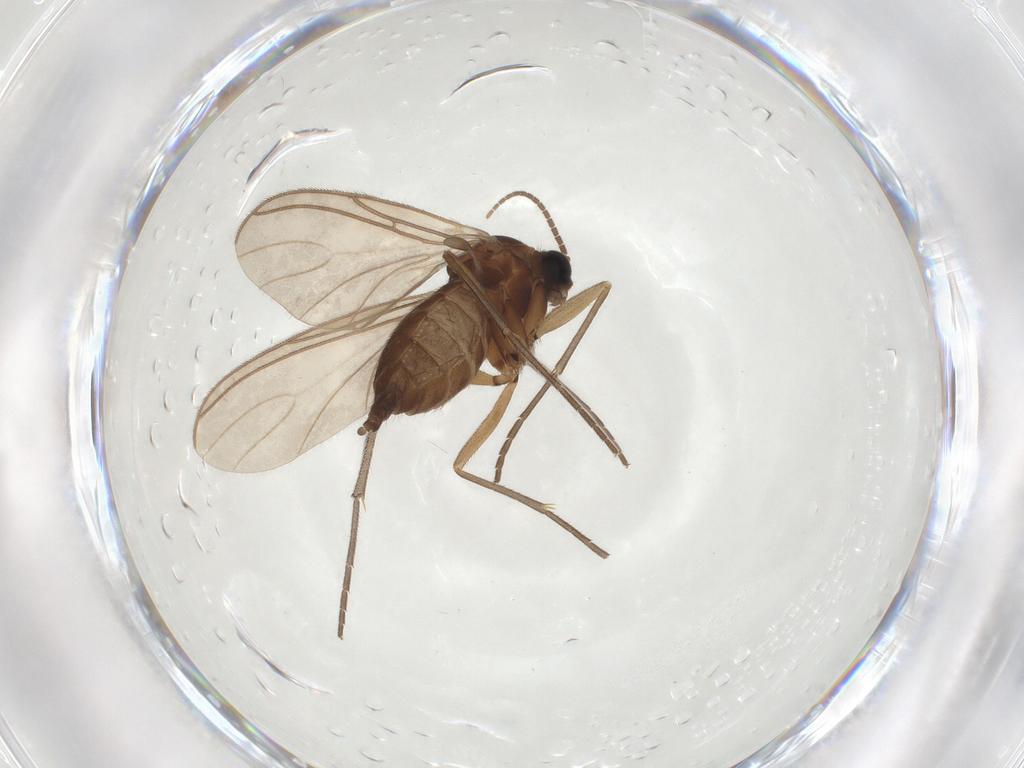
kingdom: Animalia
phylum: Arthropoda
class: Insecta
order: Diptera
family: Sciaridae
